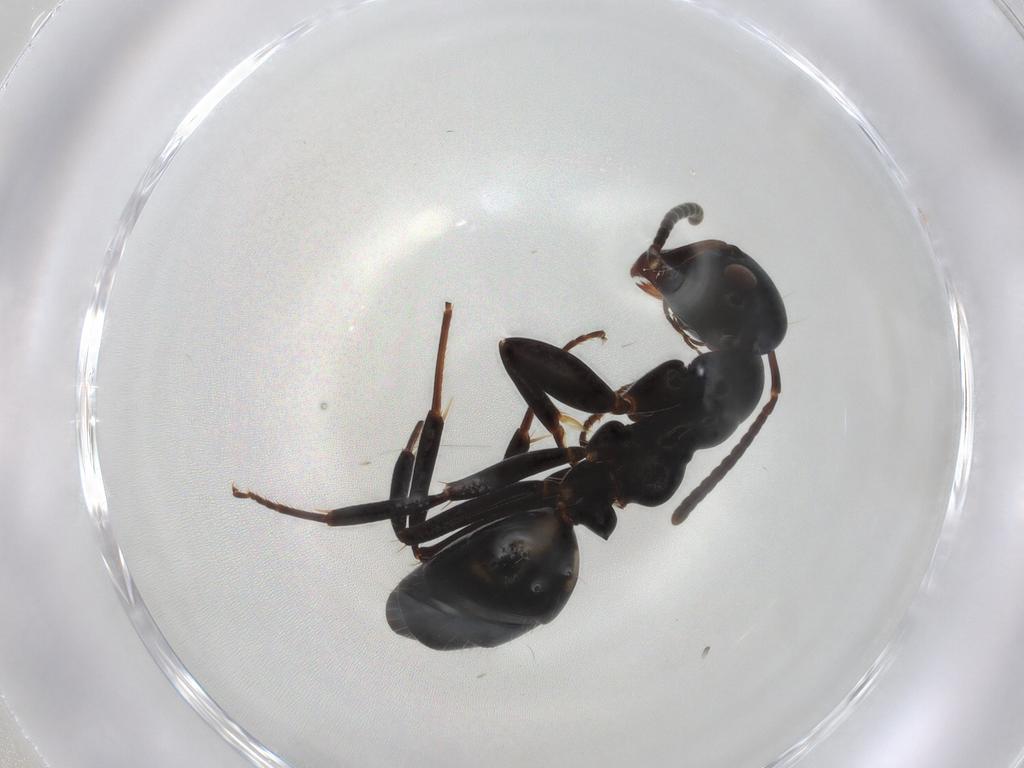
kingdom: Animalia
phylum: Arthropoda
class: Insecta
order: Hymenoptera
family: Formicidae
